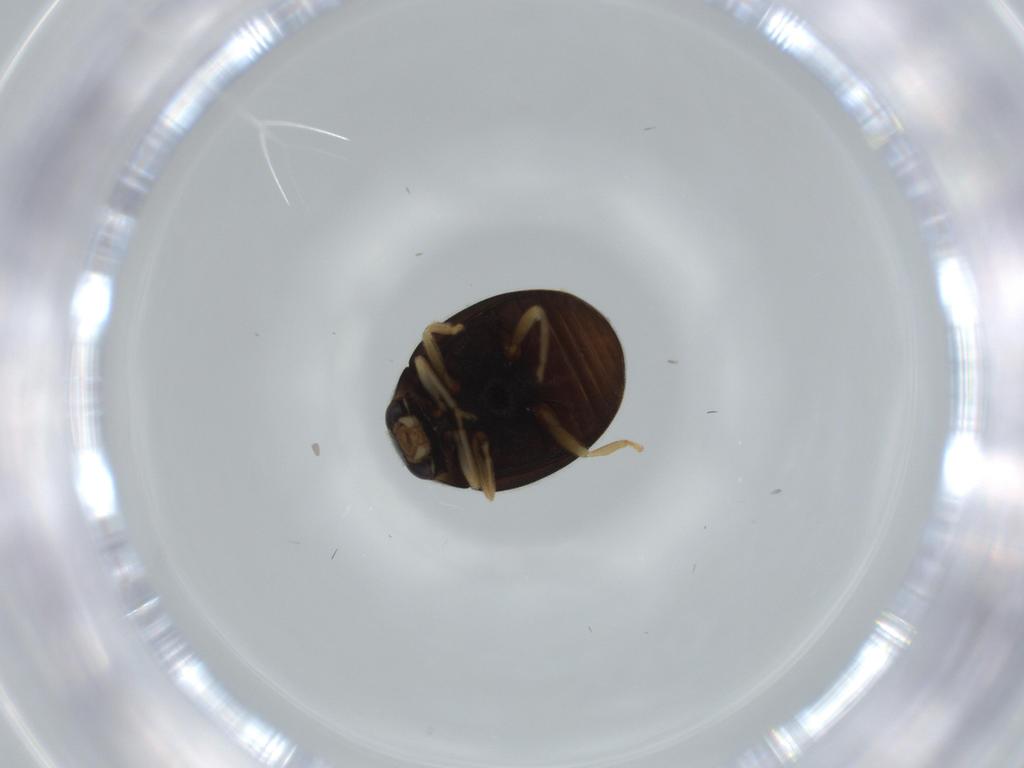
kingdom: Animalia
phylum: Arthropoda
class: Insecta
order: Coleoptera
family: Coccinellidae
